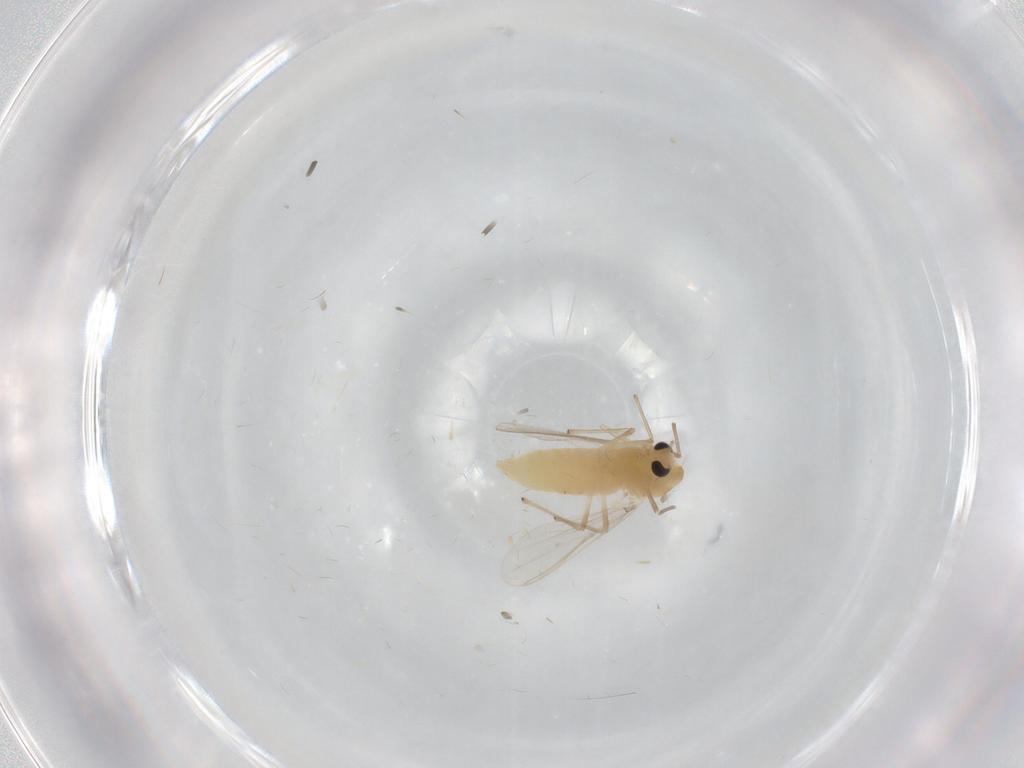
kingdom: Animalia
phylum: Arthropoda
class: Insecta
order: Diptera
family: Chironomidae
